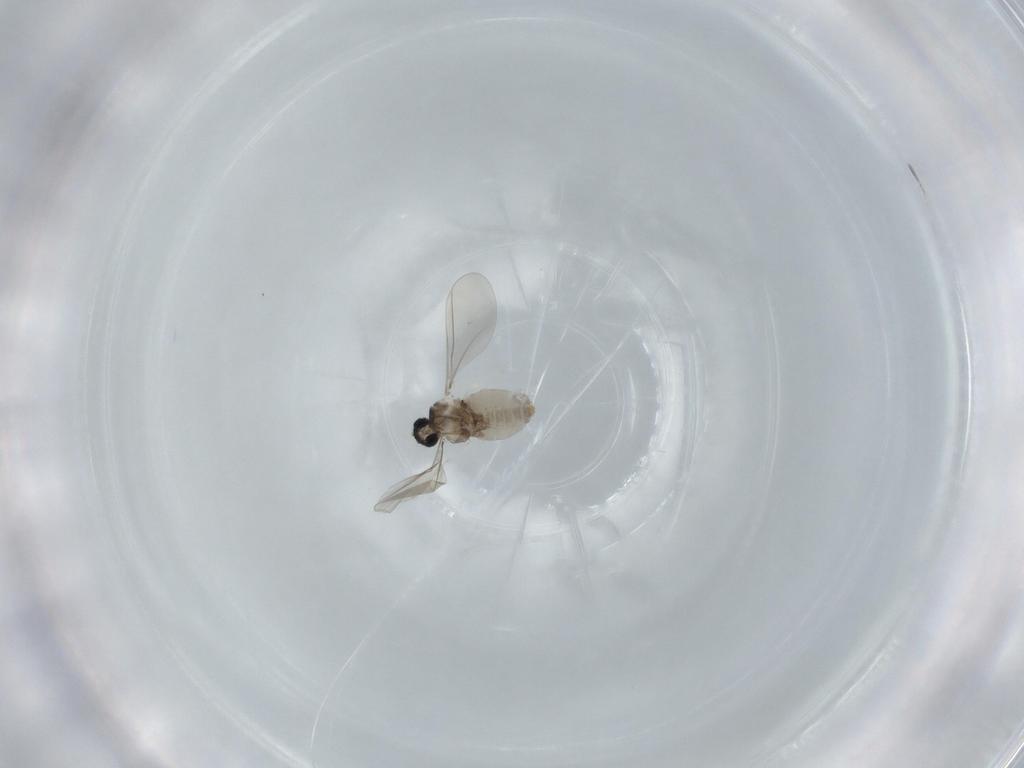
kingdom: Animalia
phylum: Arthropoda
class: Insecta
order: Diptera
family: Cecidomyiidae
